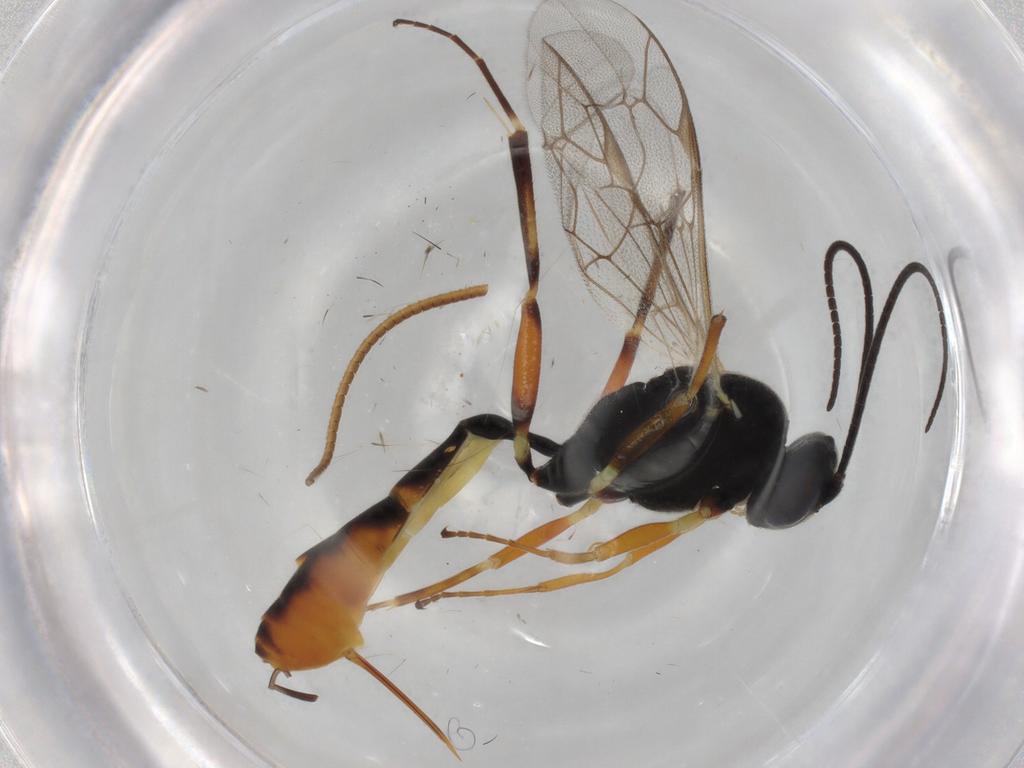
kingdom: Animalia
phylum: Arthropoda
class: Insecta
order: Hymenoptera
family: Ichneumonidae
